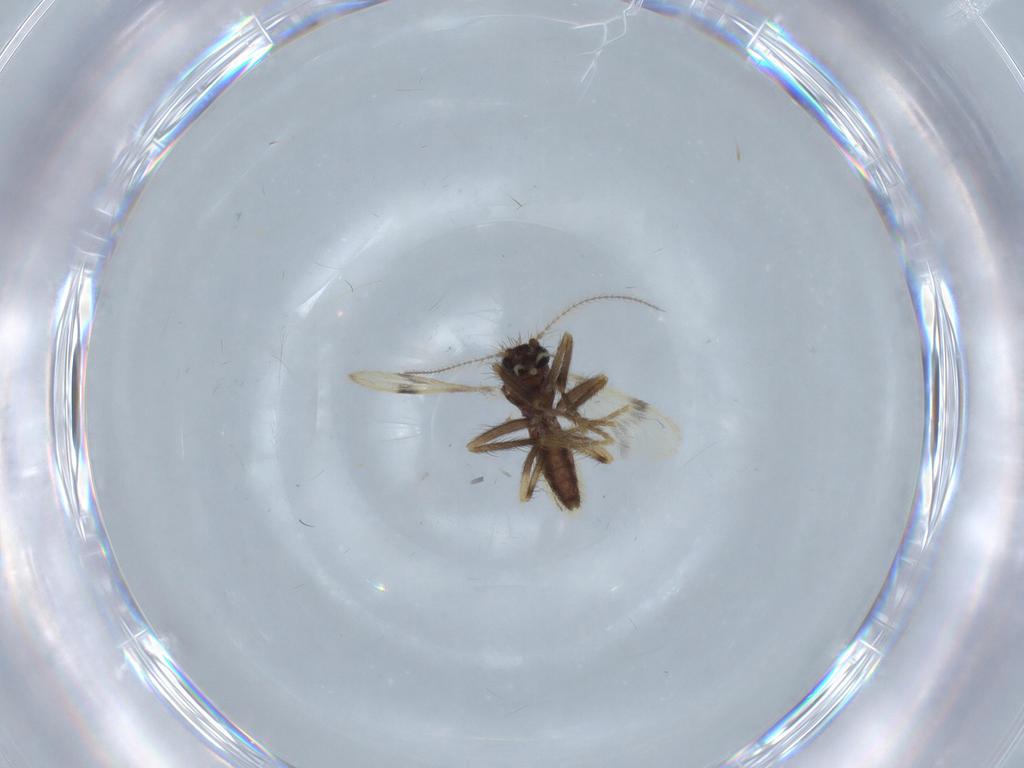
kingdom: Animalia
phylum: Arthropoda
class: Insecta
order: Diptera
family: Corethrellidae
